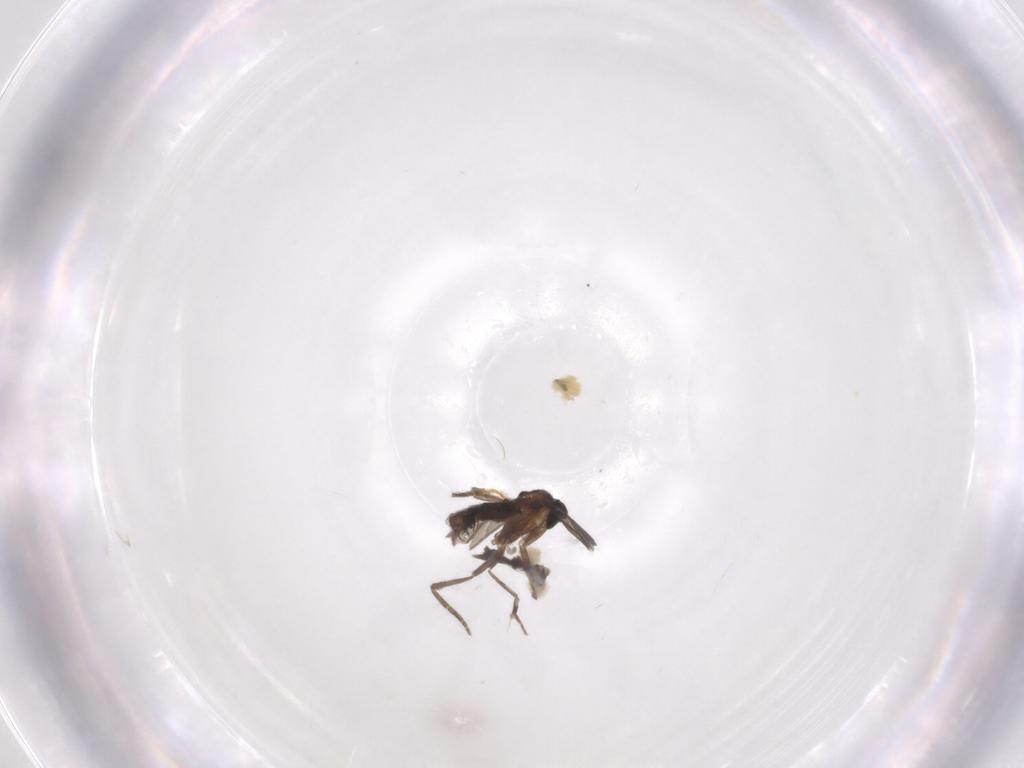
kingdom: Animalia
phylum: Arthropoda
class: Insecta
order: Diptera
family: Phoridae
